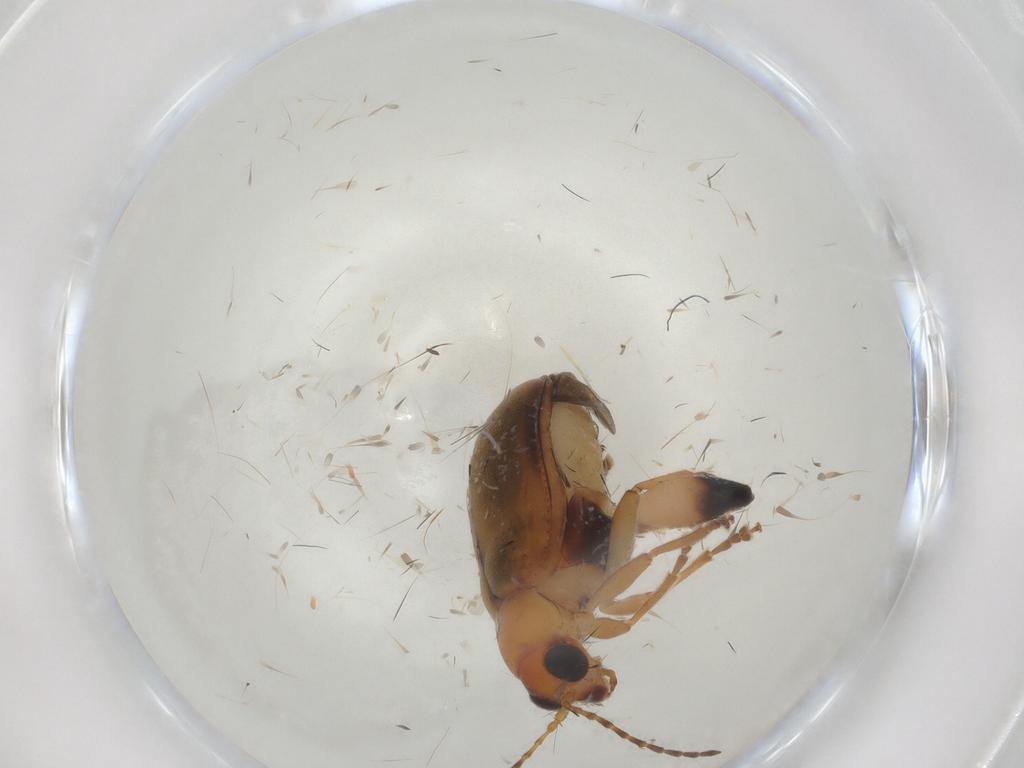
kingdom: Animalia
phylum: Arthropoda
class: Insecta
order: Coleoptera
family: Chrysomelidae
